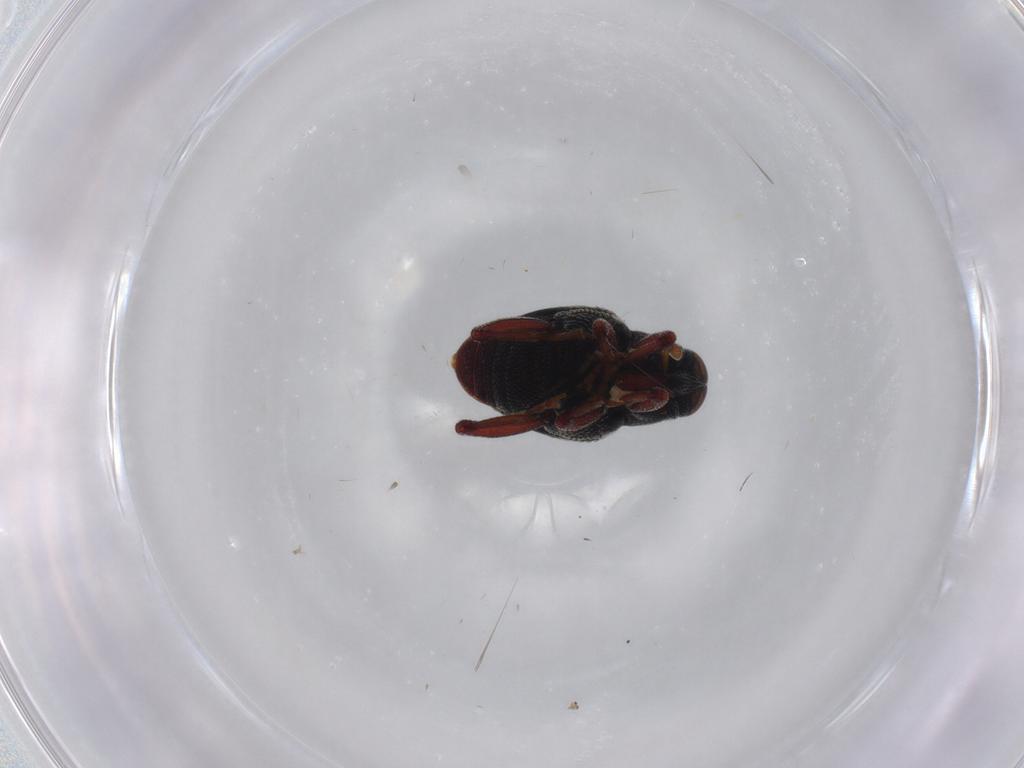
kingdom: Animalia
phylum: Arthropoda
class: Insecta
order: Coleoptera
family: Curculionidae
